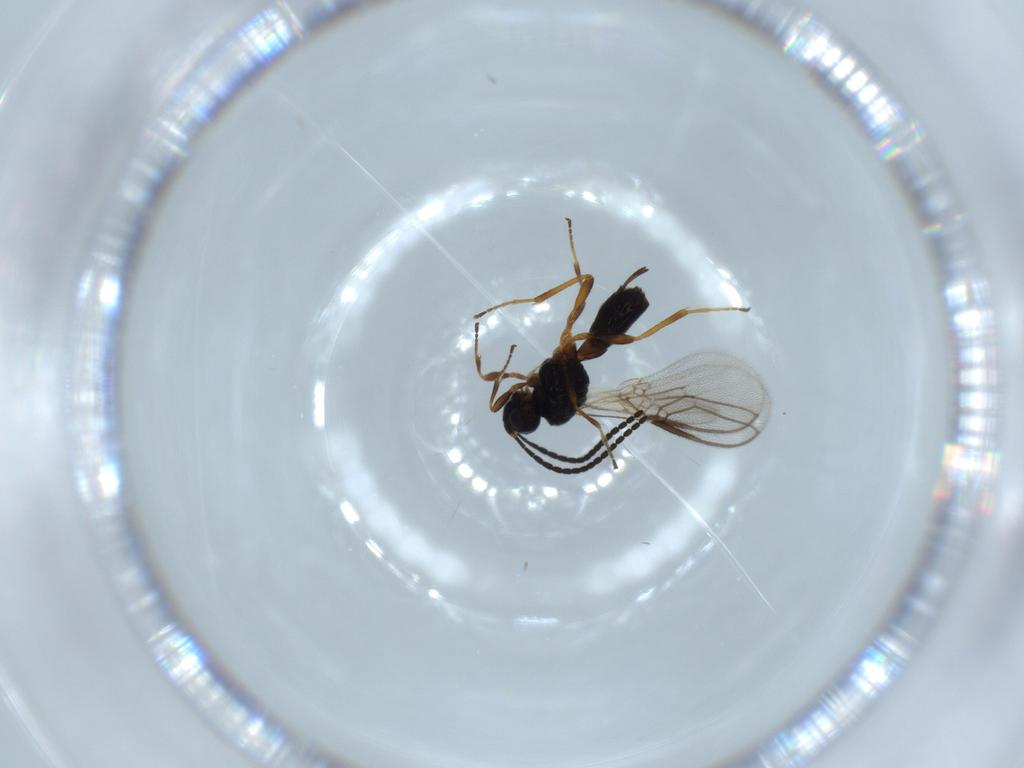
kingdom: Animalia
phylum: Arthropoda
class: Insecta
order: Hymenoptera
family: Braconidae
